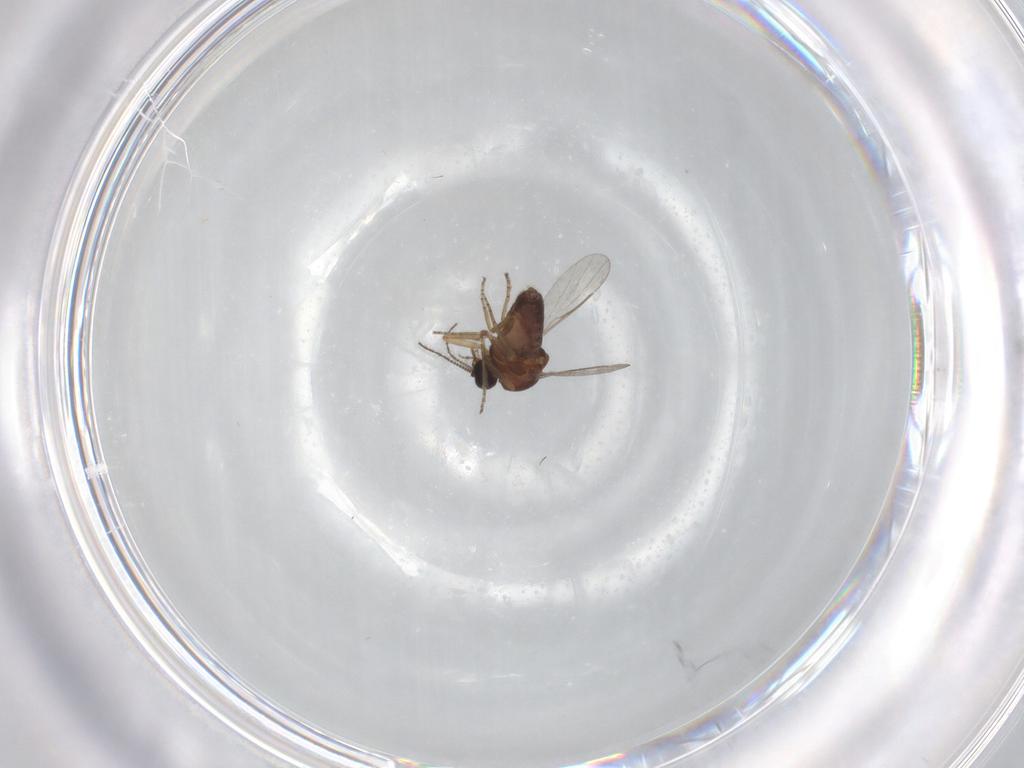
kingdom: Animalia
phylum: Arthropoda
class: Insecta
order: Diptera
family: Ceratopogonidae
